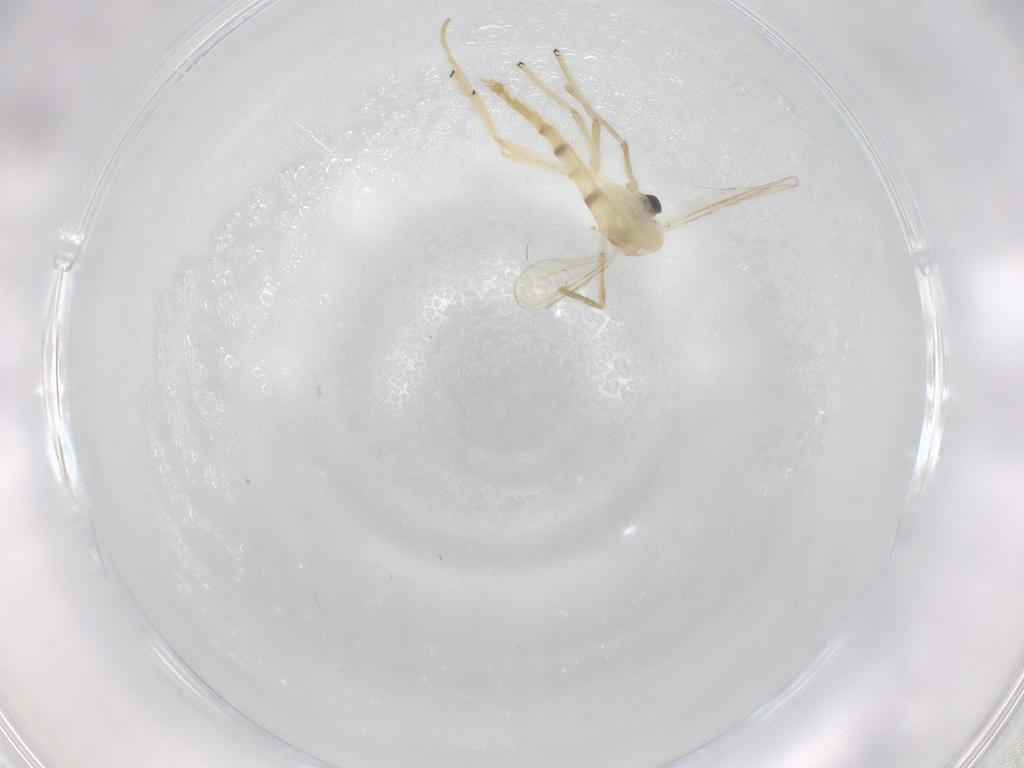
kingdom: Animalia
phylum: Arthropoda
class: Insecta
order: Diptera
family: Chironomidae
